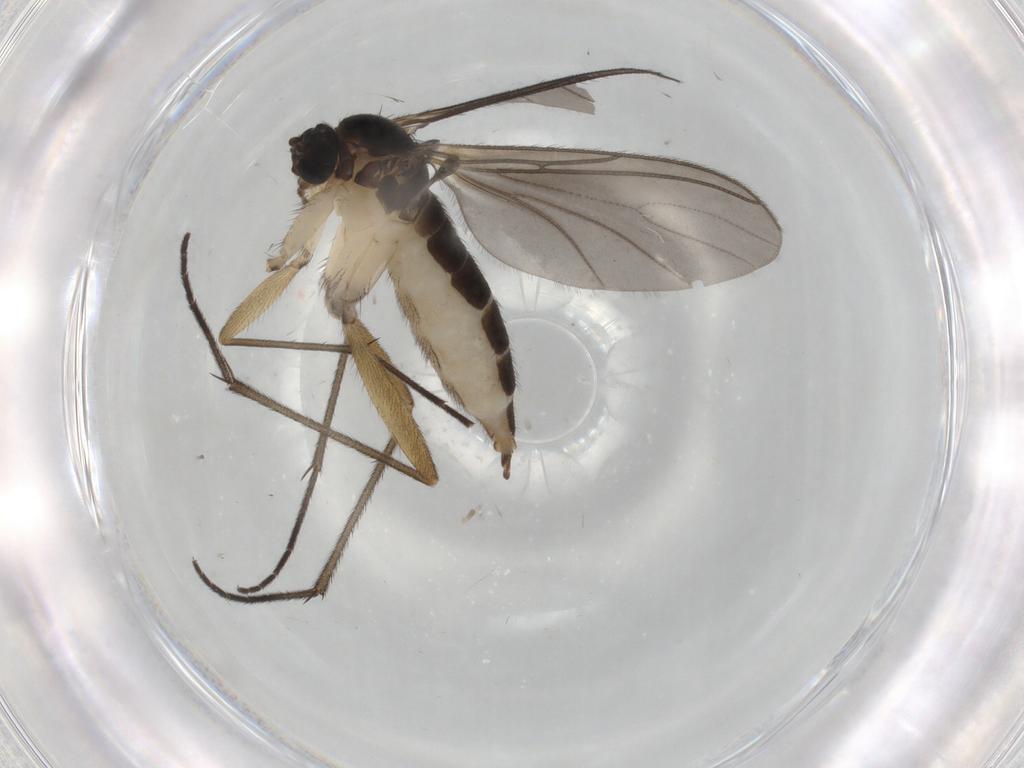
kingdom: Animalia
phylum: Arthropoda
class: Insecta
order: Diptera
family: Sciaridae
